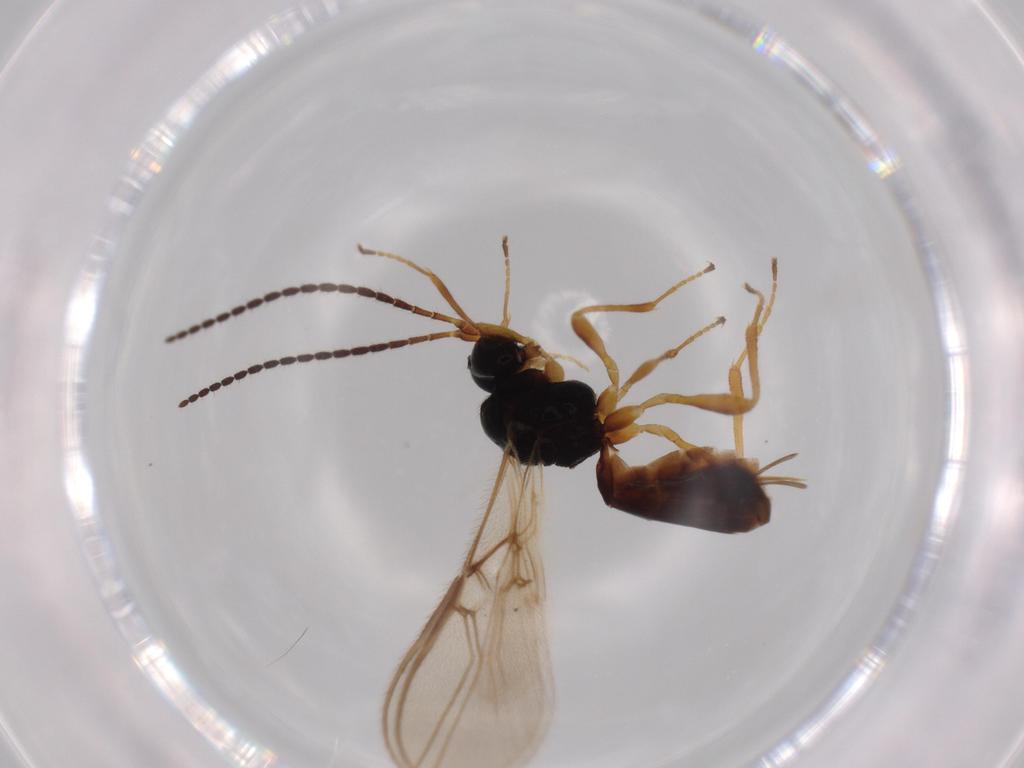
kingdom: Animalia
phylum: Arthropoda
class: Insecta
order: Hymenoptera
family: Braconidae
